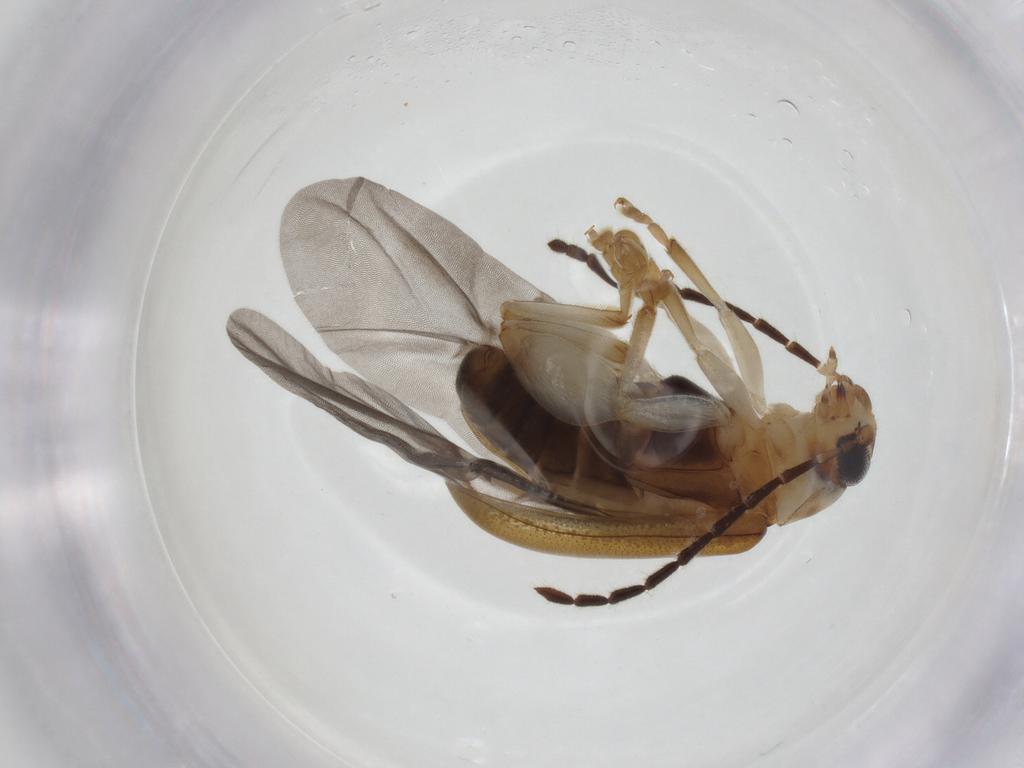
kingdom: Animalia
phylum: Arthropoda
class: Insecta
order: Coleoptera
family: Chrysomelidae
